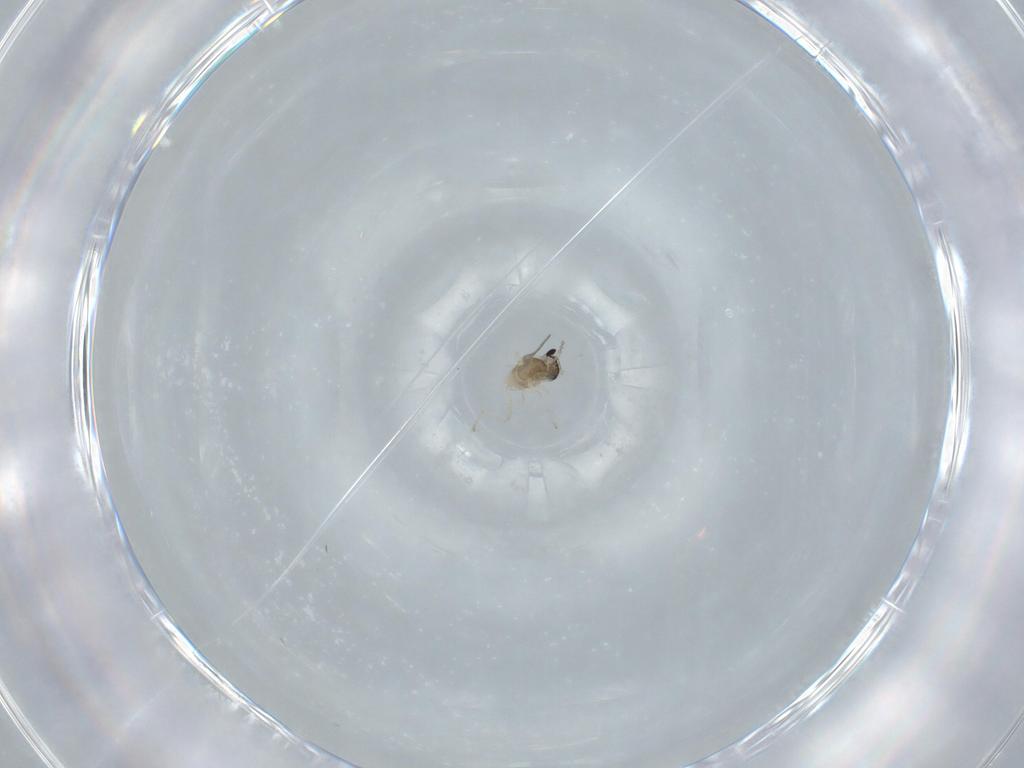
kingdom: Animalia
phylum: Arthropoda
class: Insecta
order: Diptera
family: Cecidomyiidae
